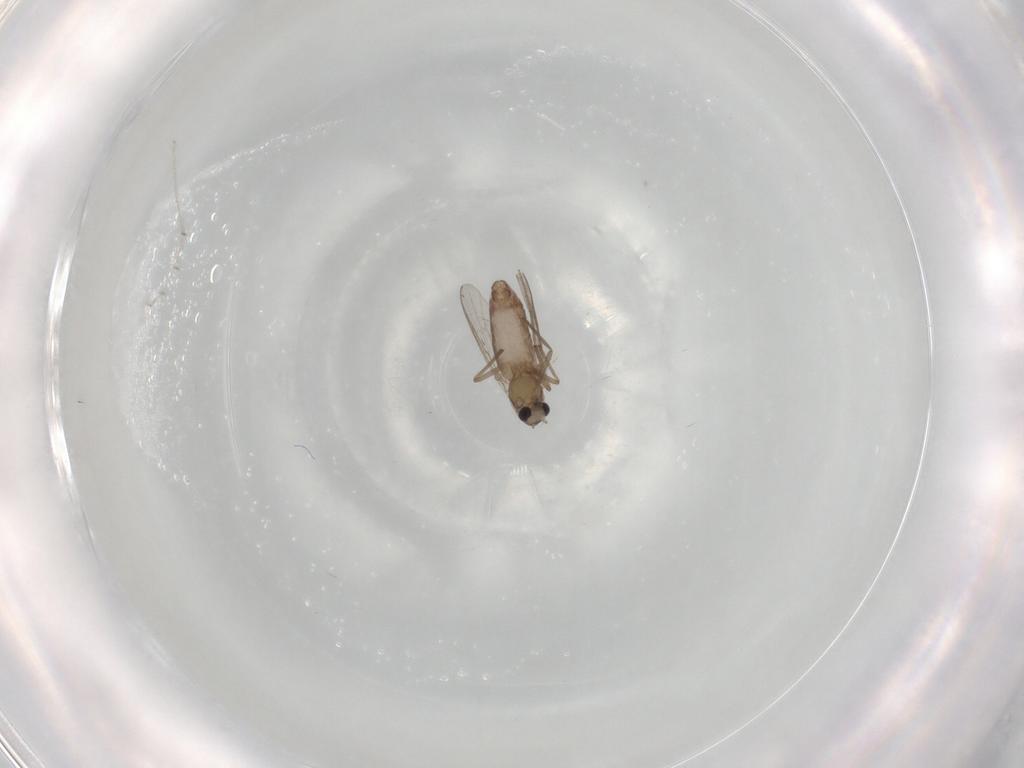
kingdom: Animalia
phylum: Arthropoda
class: Insecta
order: Diptera
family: Chironomidae
